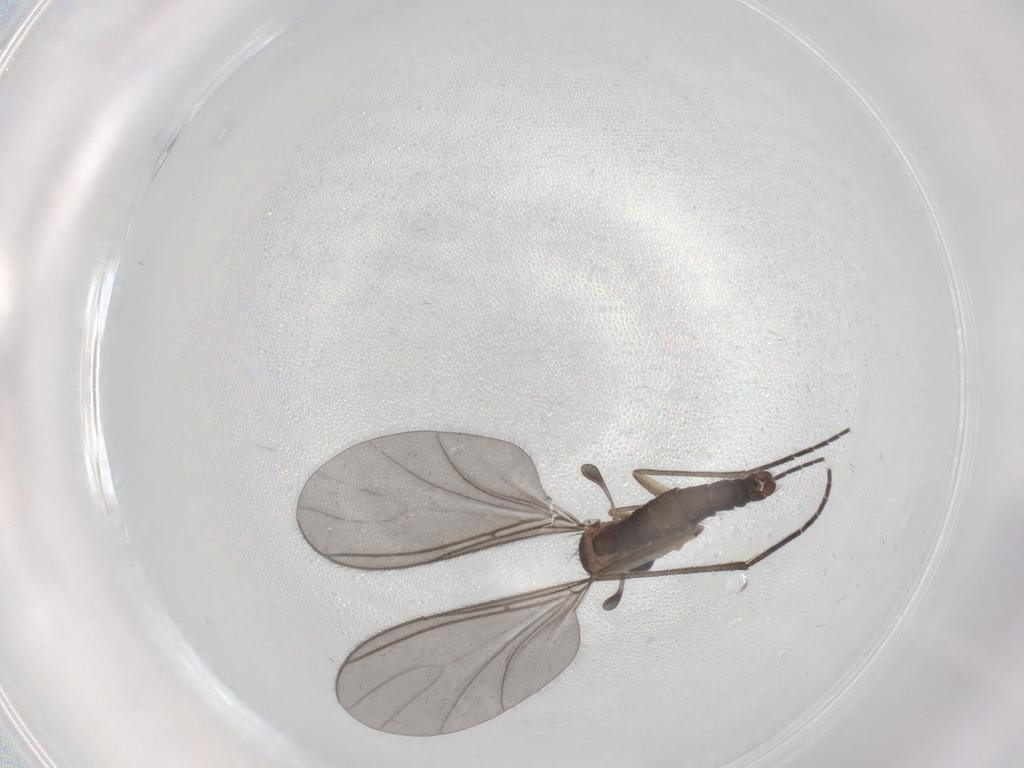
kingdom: Animalia
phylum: Arthropoda
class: Insecta
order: Diptera
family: Sciaridae
